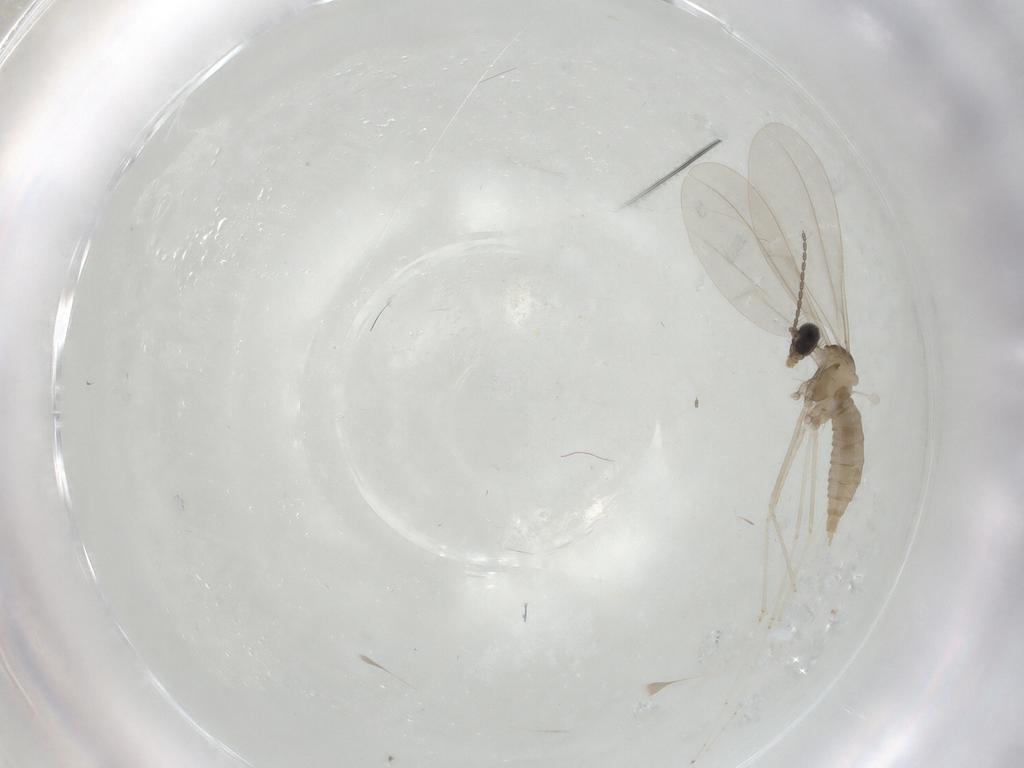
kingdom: Animalia
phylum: Arthropoda
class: Insecta
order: Diptera
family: Cecidomyiidae
